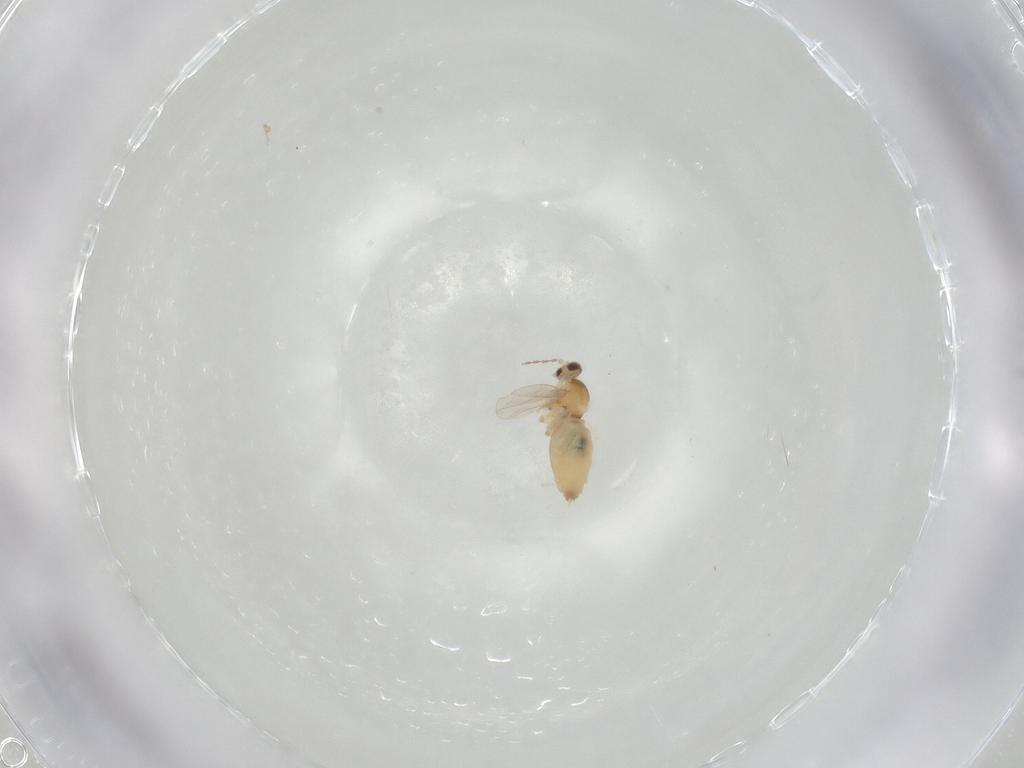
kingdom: Animalia
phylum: Arthropoda
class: Insecta
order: Diptera
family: Cecidomyiidae
